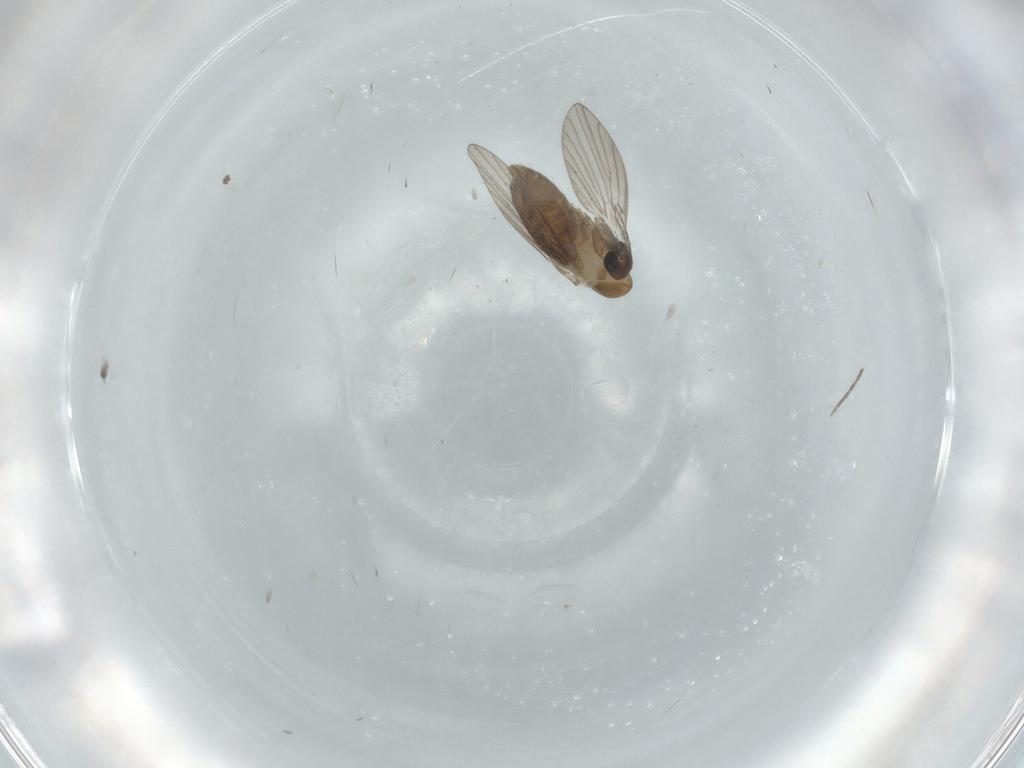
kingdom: Animalia
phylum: Arthropoda
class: Insecta
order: Diptera
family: Psychodidae
